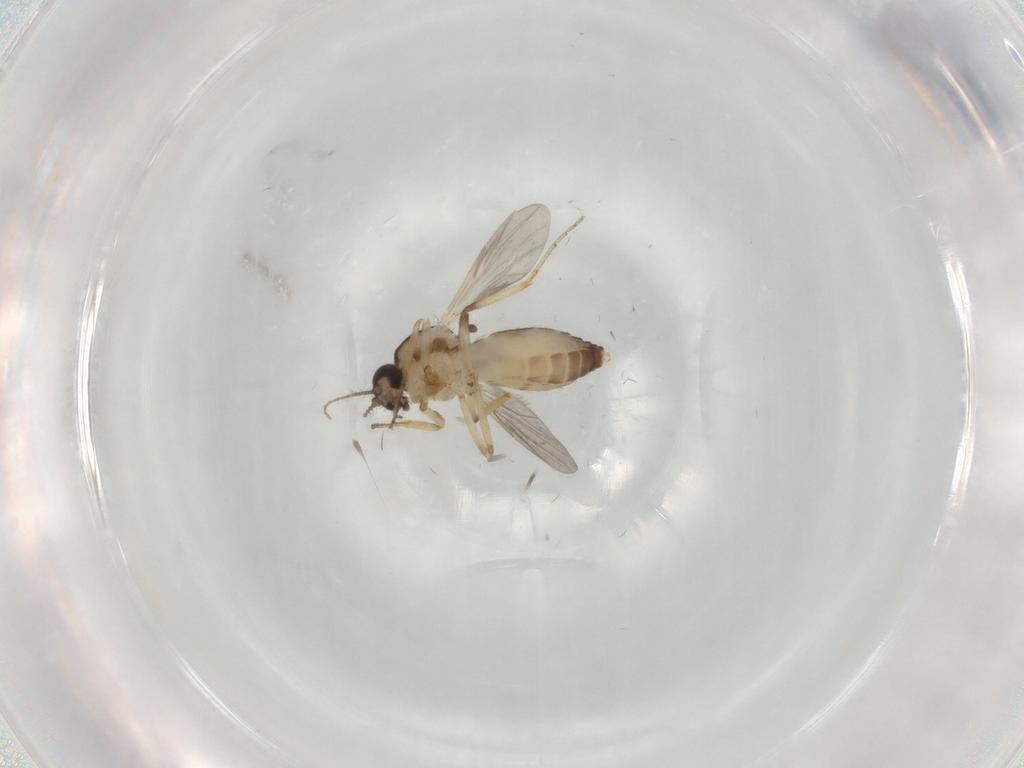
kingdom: Animalia
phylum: Arthropoda
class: Insecta
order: Diptera
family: Ceratopogonidae
